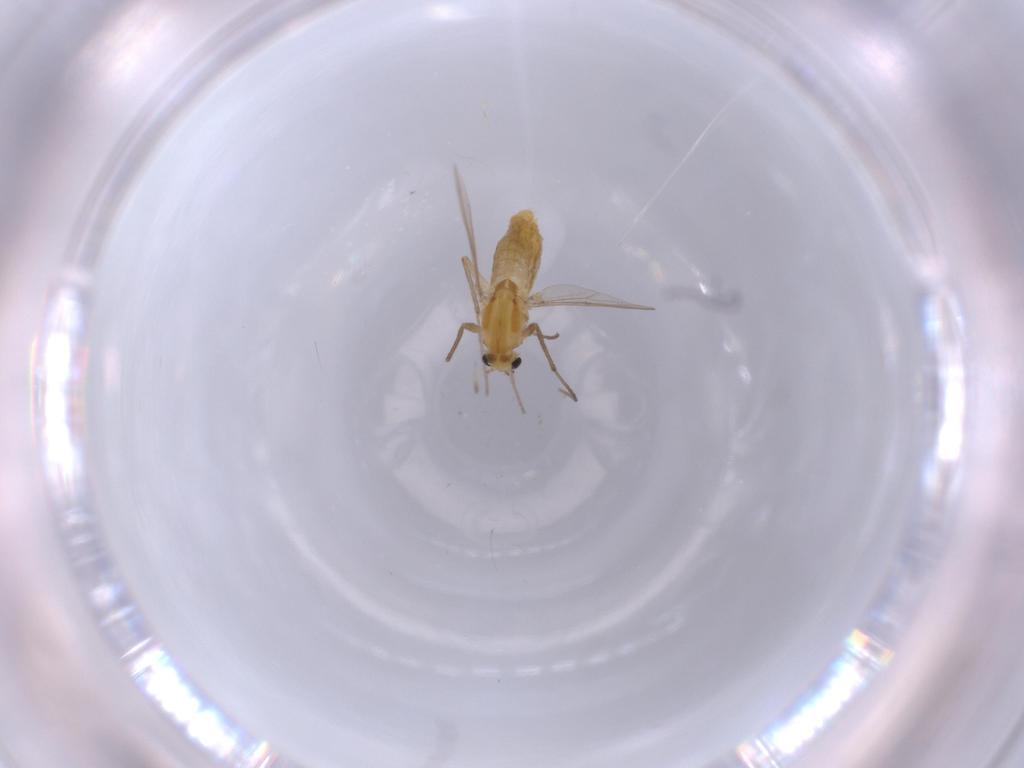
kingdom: Animalia
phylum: Arthropoda
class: Insecta
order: Diptera
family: Chironomidae
